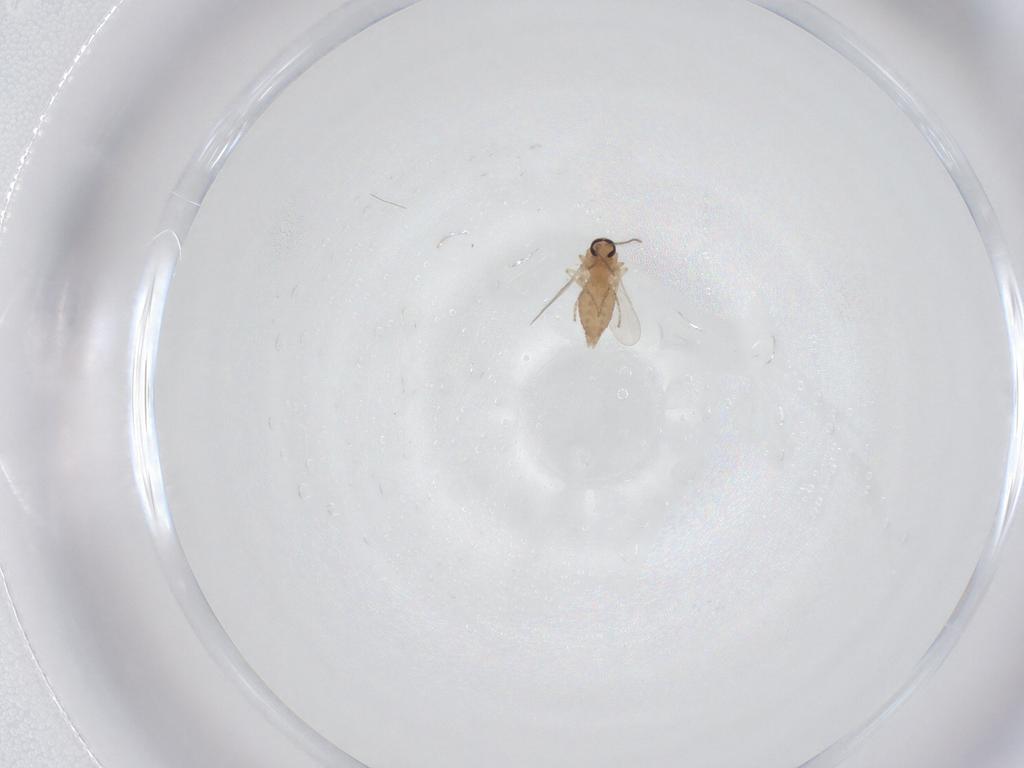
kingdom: Animalia
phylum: Arthropoda
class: Insecta
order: Diptera
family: Ceratopogonidae
